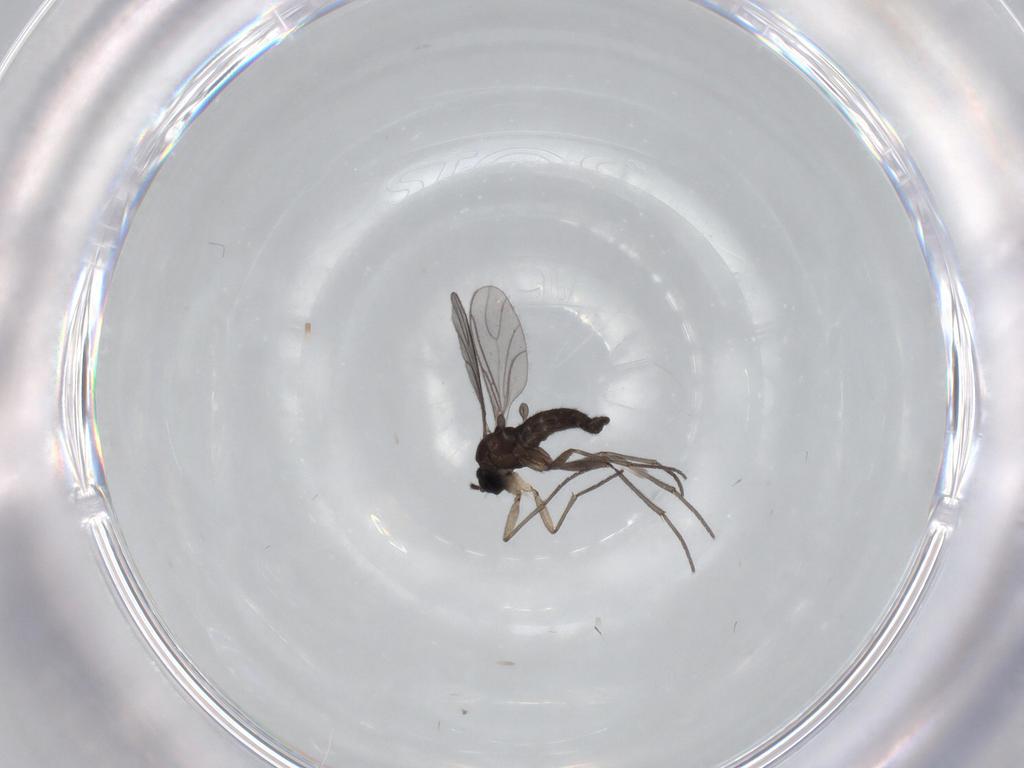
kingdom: Animalia
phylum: Arthropoda
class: Insecta
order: Diptera
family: Sciaridae
